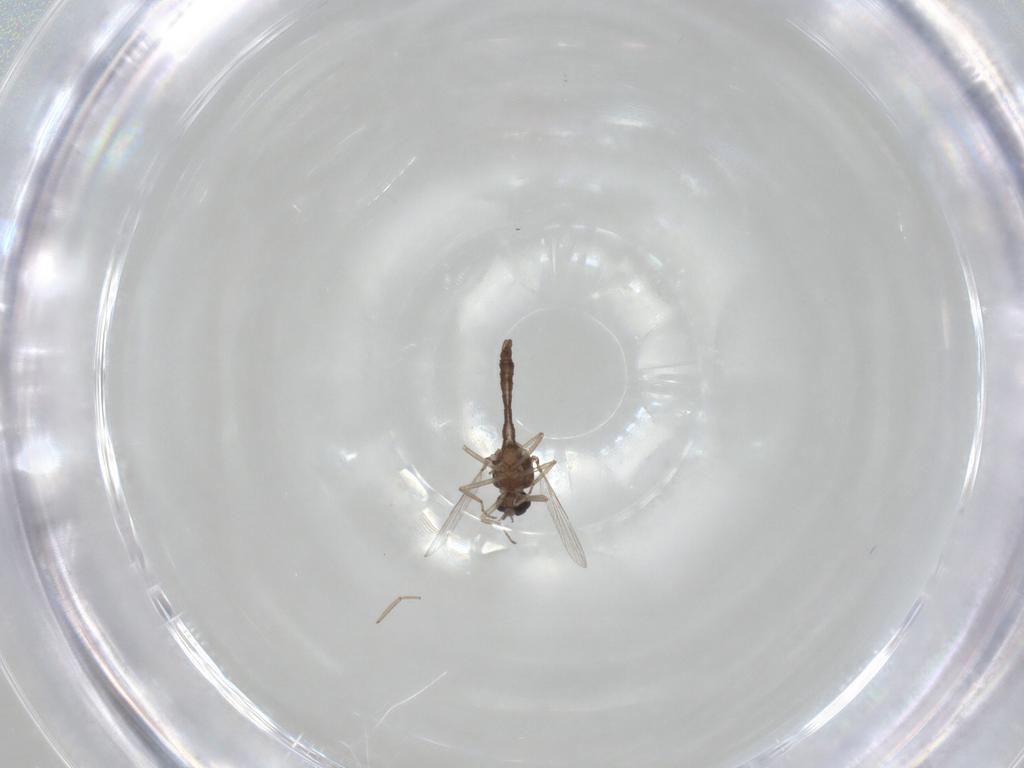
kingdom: Animalia
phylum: Arthropoda
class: Insecta
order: Diptera
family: Ceratopogonidae
